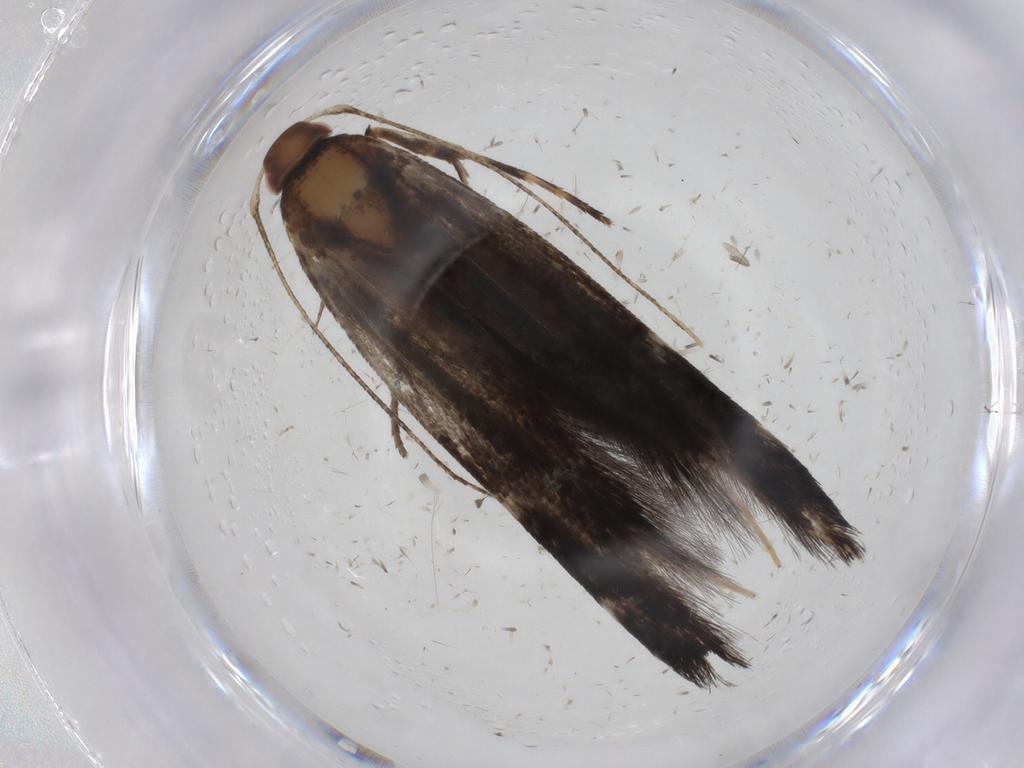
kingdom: Animalia
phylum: Arthropoda
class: Insecta
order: Lepidoptera
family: Cosmopterigidae
